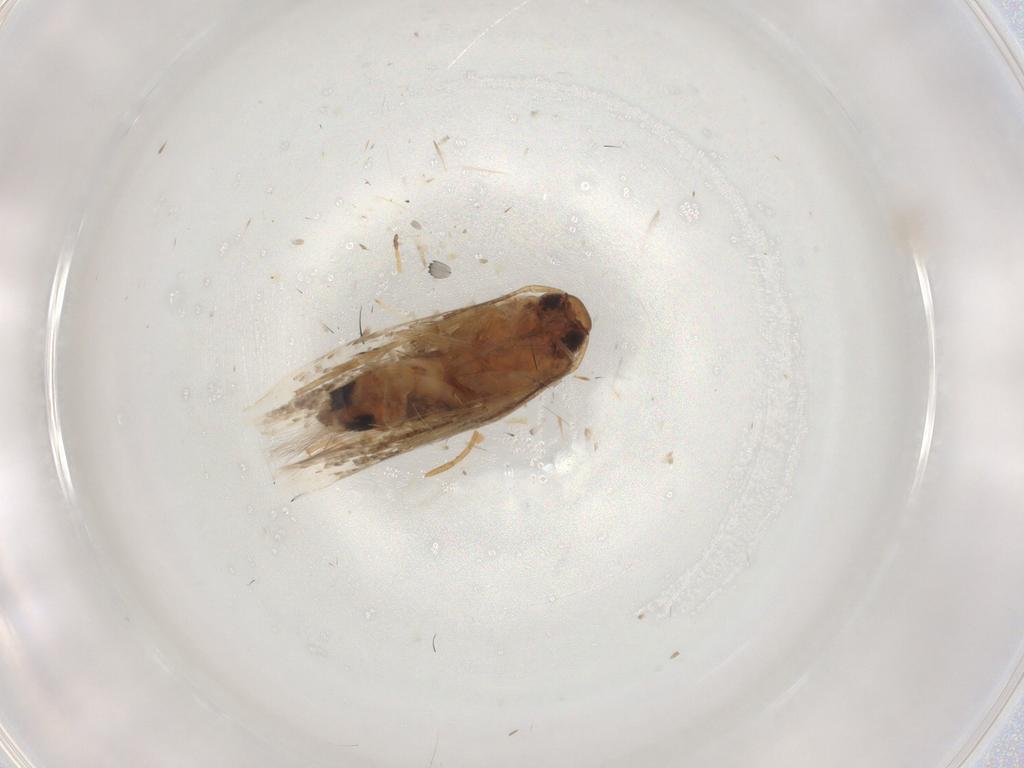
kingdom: Animalia
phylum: Arthropoda
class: Insecta
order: Lepidoptera
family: Cosmopterigidae
